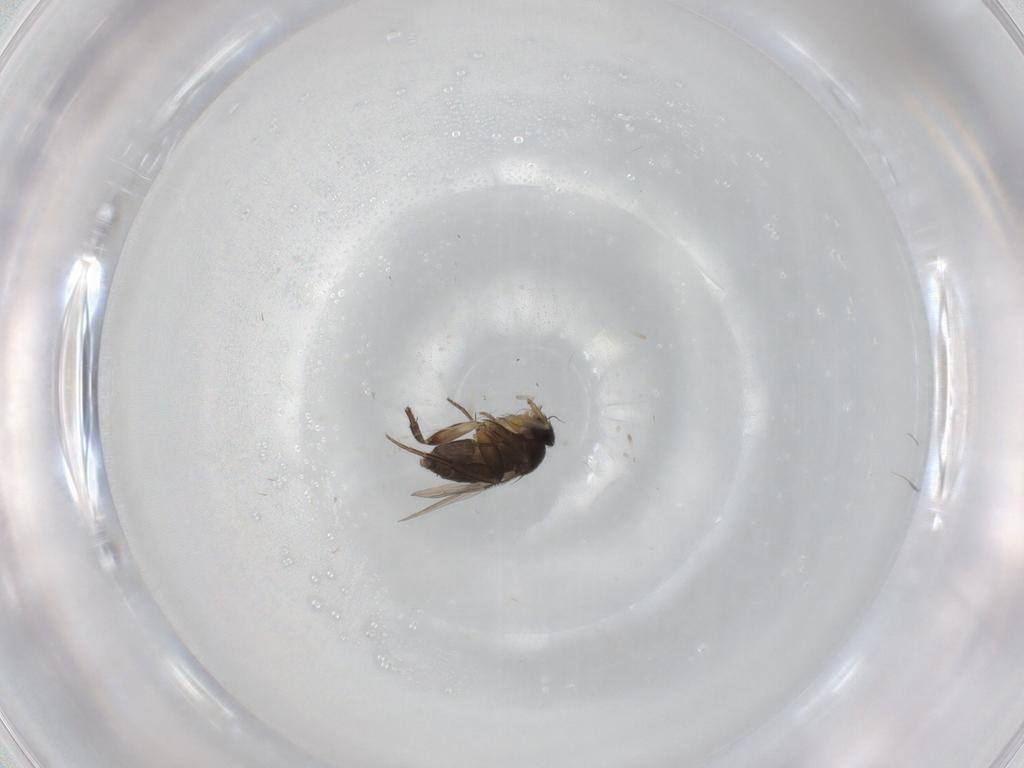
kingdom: Animalia
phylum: Arthropoda
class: Insecta
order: Diptera
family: Phoridae
